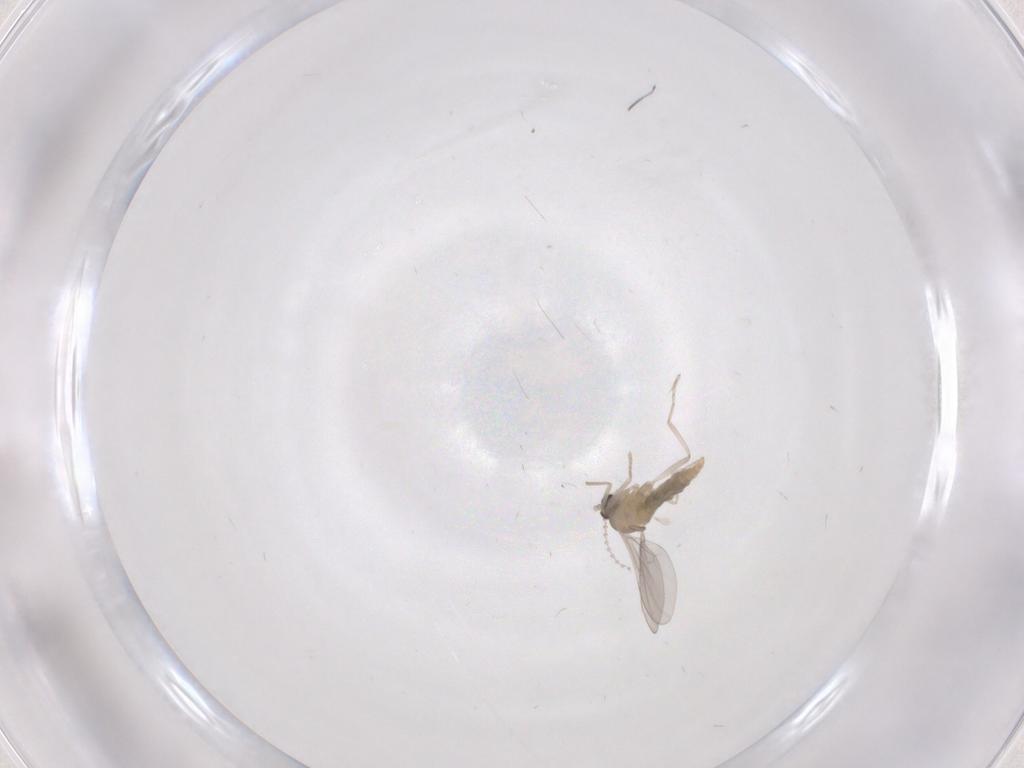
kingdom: Animalia
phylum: Arthropoda
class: Insecta
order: Diptera
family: Cecidomyiidae
